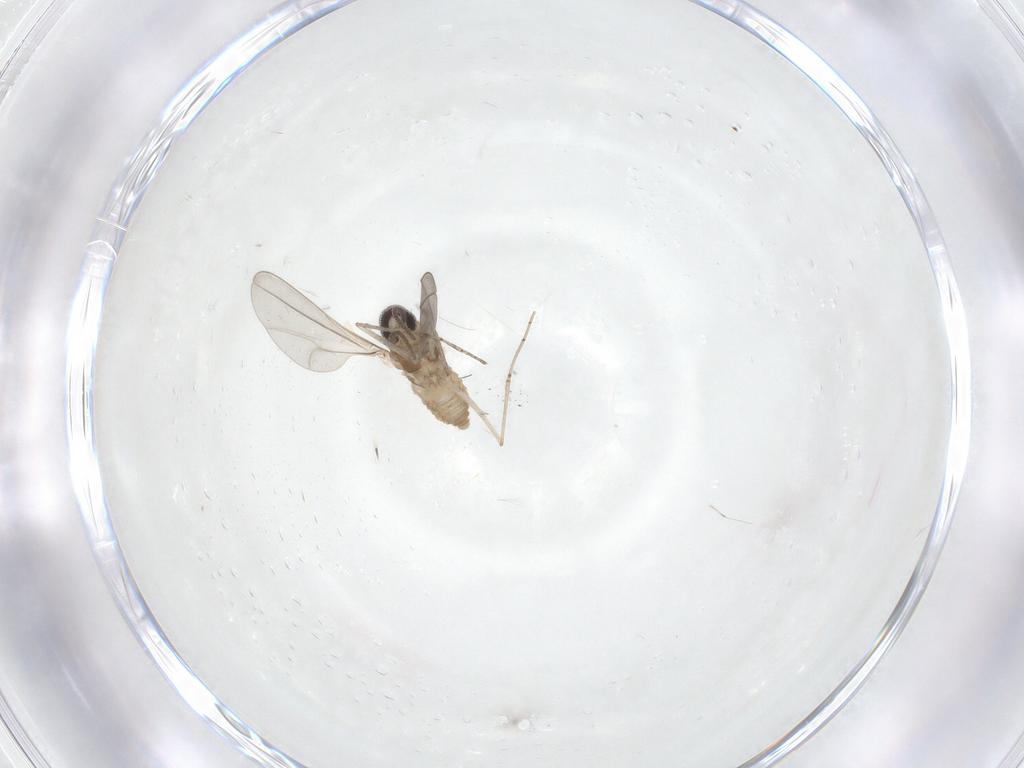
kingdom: Animalia
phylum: Arthropoda
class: Insecta
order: Diptera
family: Cecidomyiidae
